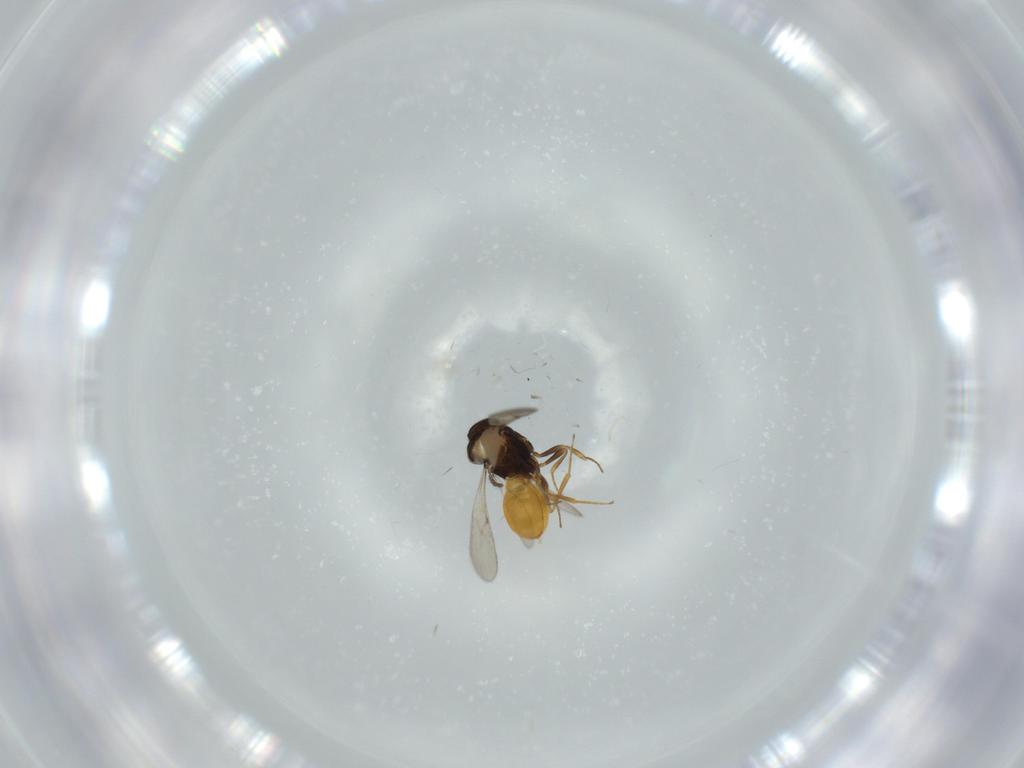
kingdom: Animalia
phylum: Arthropoda
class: Insecta
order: Hymenoptera
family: Scelionidae
